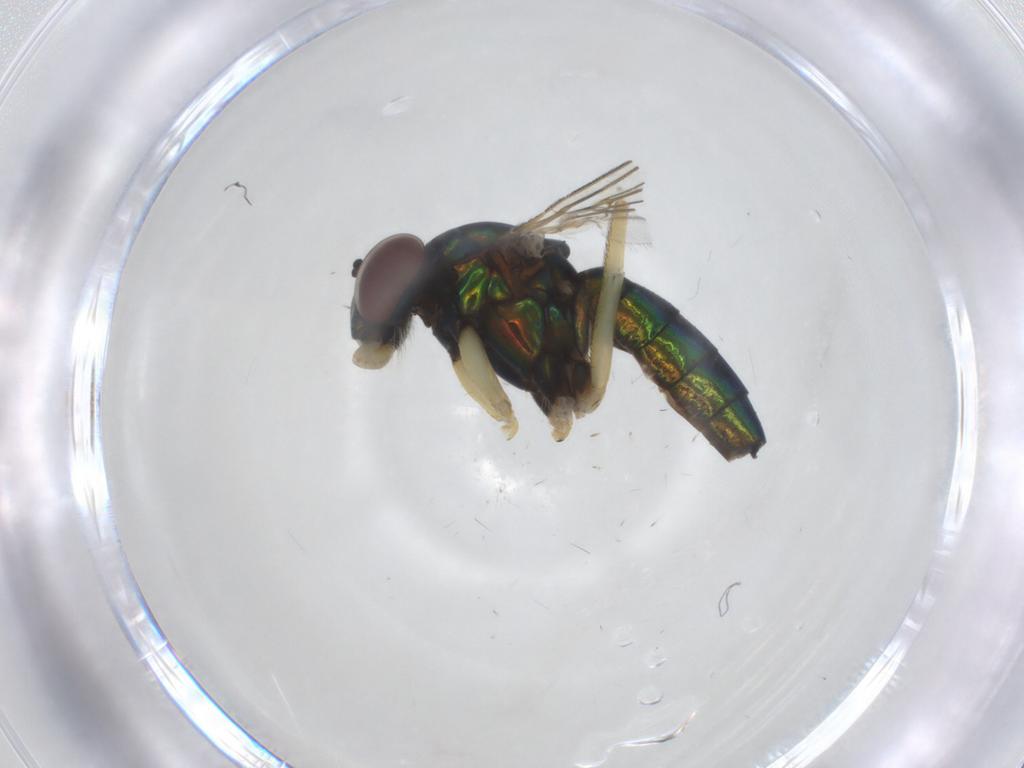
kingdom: Animalia
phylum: Arthropoda
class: Insecta
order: Diptera
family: Dolichopodidae
